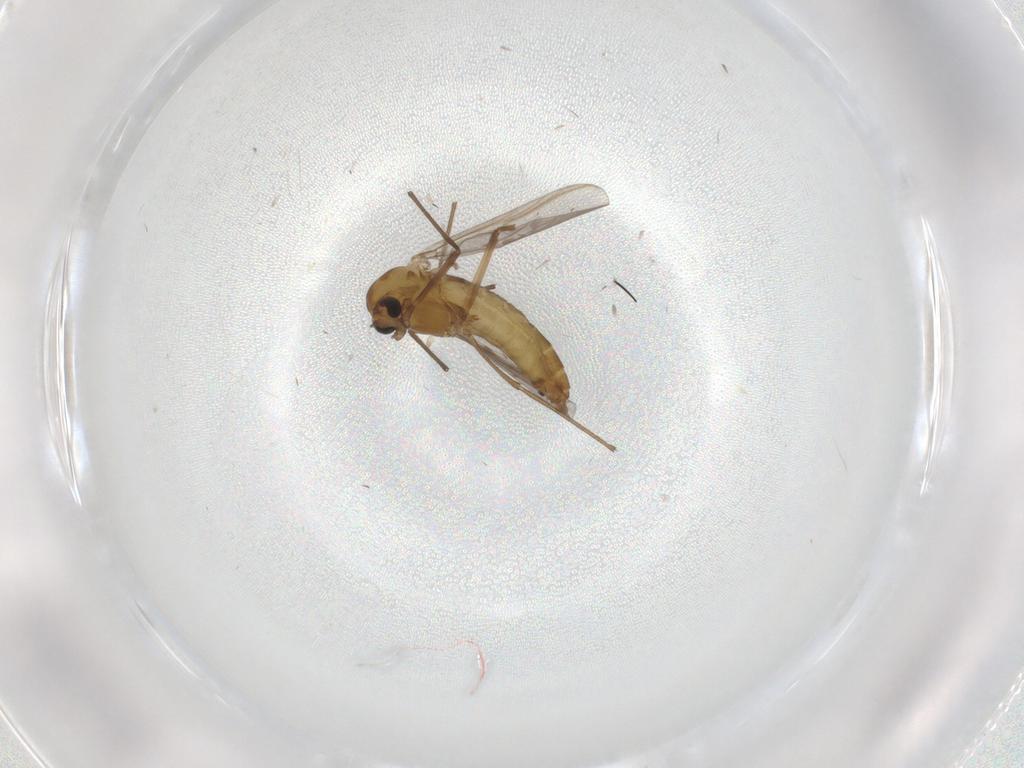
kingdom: Animalia
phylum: Arthropoda
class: Insecta
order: Diptera
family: Chironomidae
